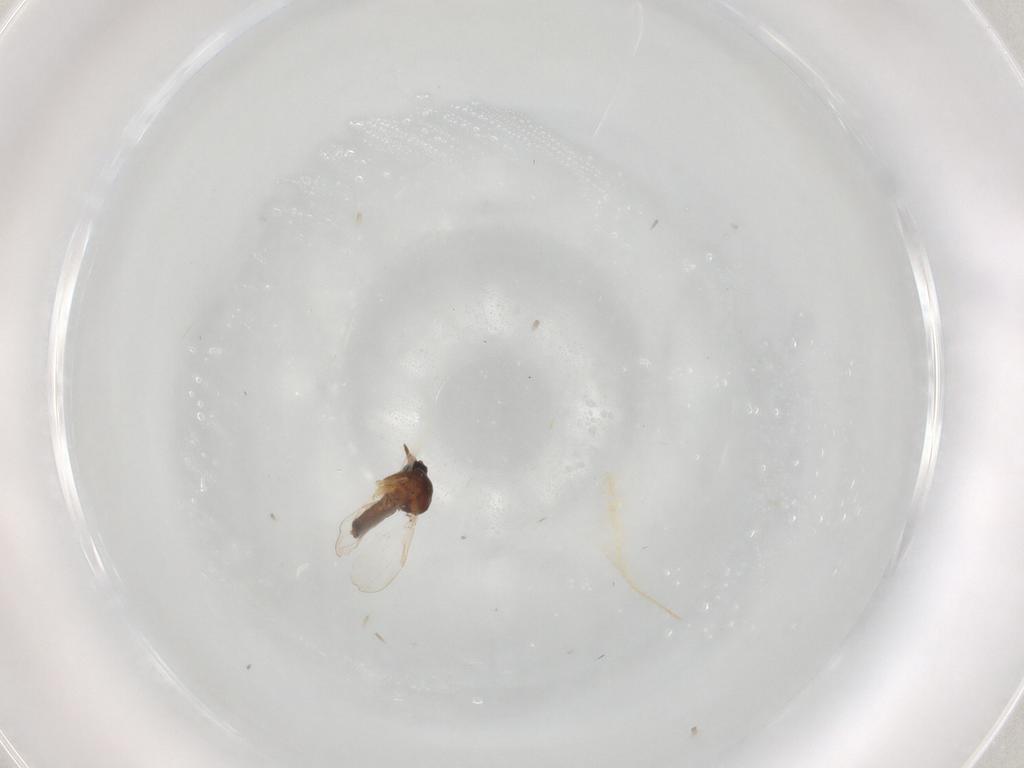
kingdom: Animalia
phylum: Arthropoda
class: Insecta
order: Diptera
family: Ceratopogonidae
